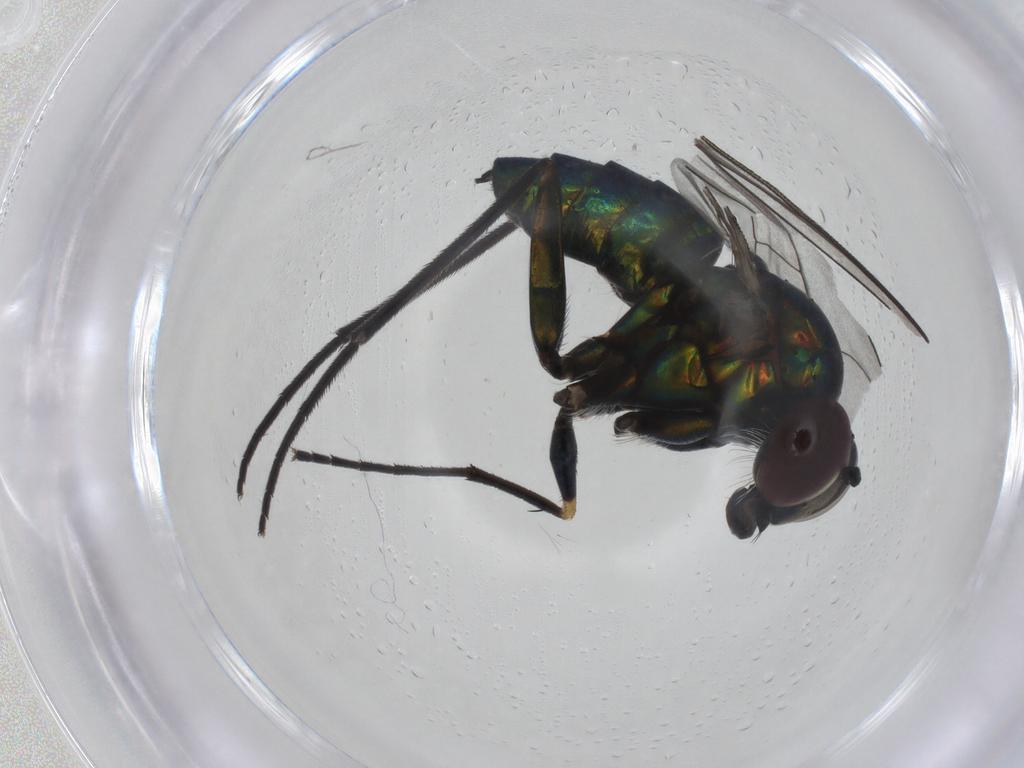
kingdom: Animalia
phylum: Arthropoda
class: Insecta
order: Diptera
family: Dolichopodidae
